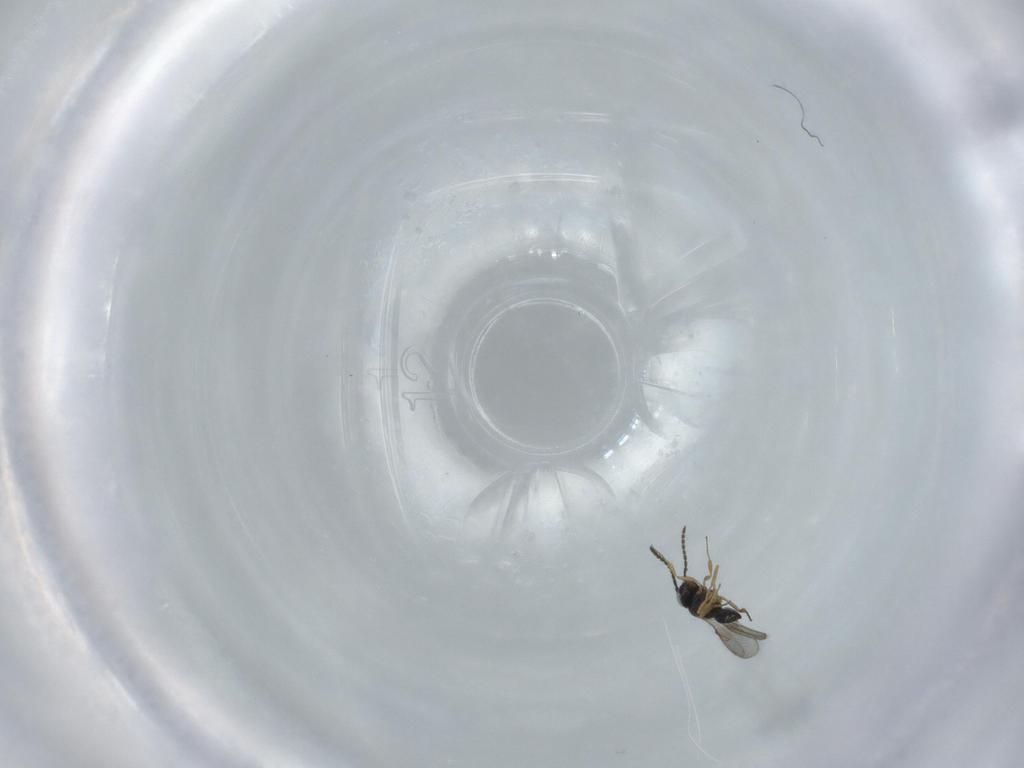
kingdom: Animalia
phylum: Arthropoda
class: Insecta
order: Hymenoptera
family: Scelionidae
